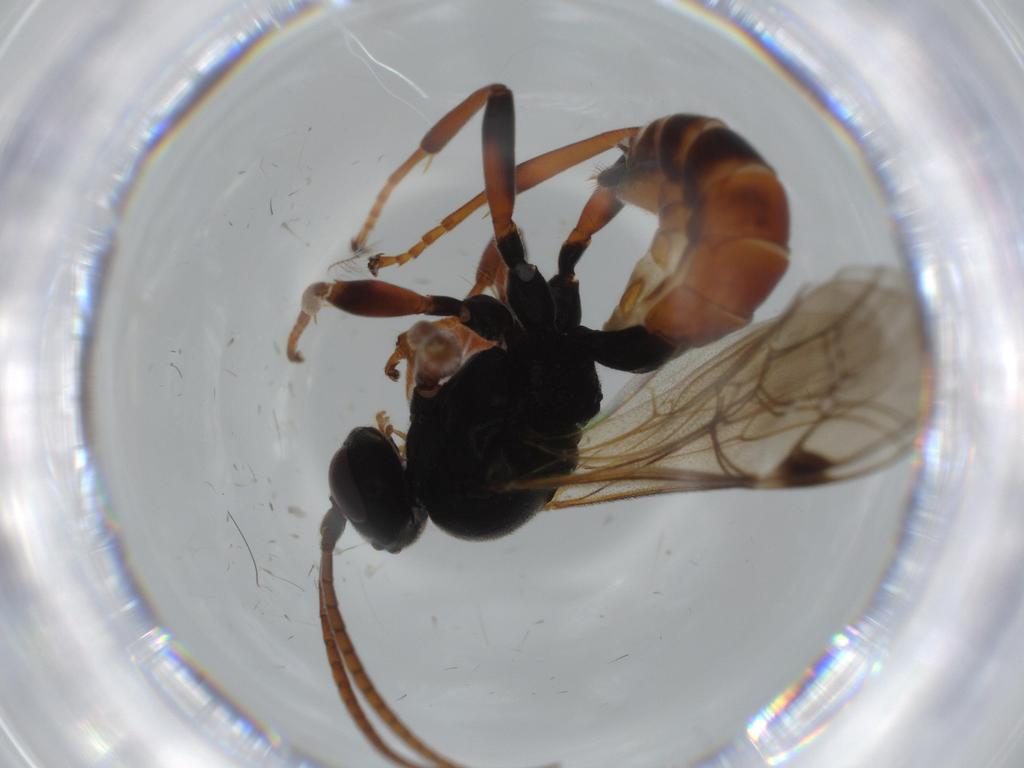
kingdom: Animalia
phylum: Arthropoda
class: Insecta
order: Hymenoptera
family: Ichneumonidae
